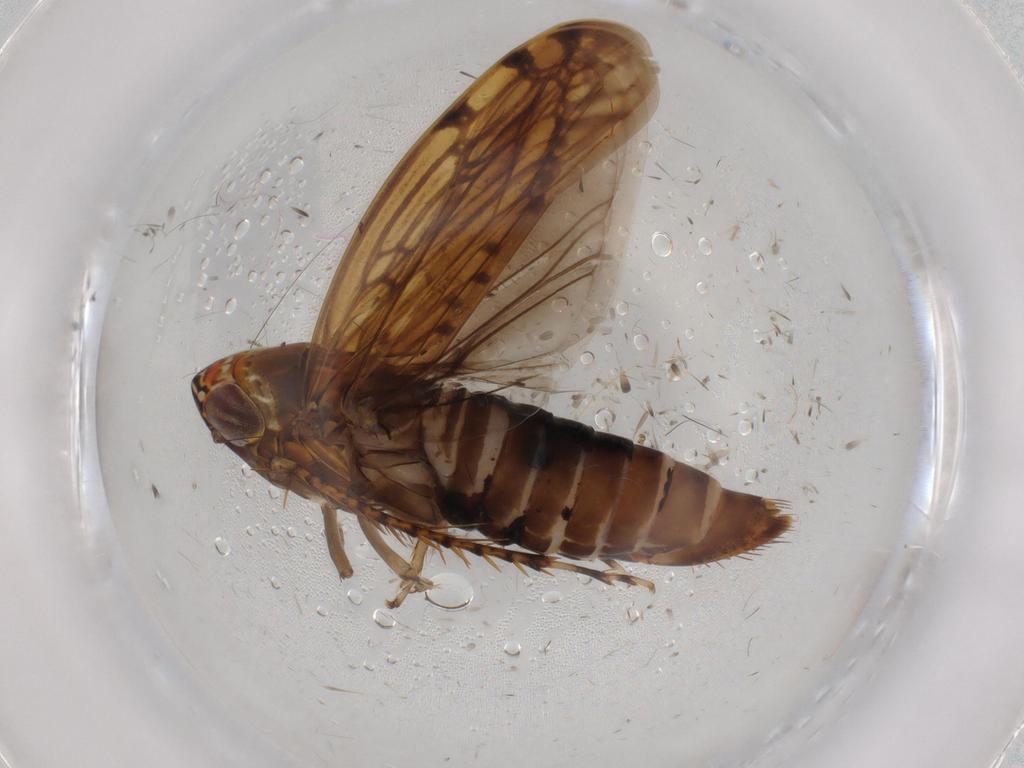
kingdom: Animalia
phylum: Arthropoda
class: Insecta
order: Hemiptera
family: Cicadellidae
